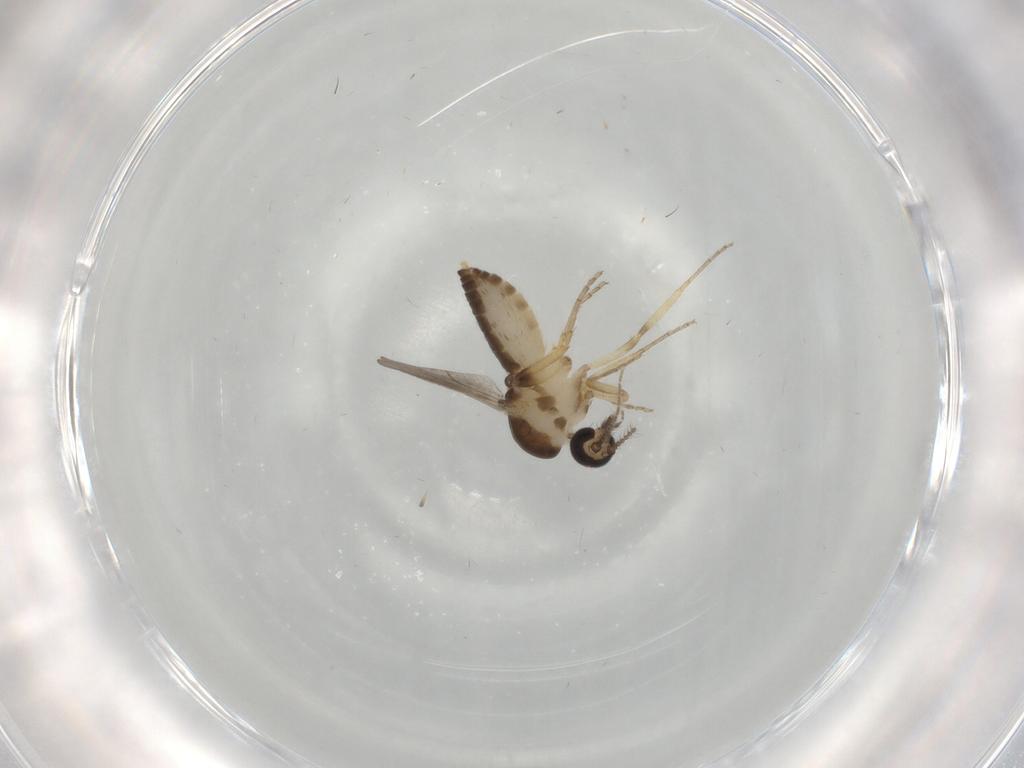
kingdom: Animalia
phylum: Arthropoda
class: Insecta
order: Diptera
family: Ceratopogonidae
